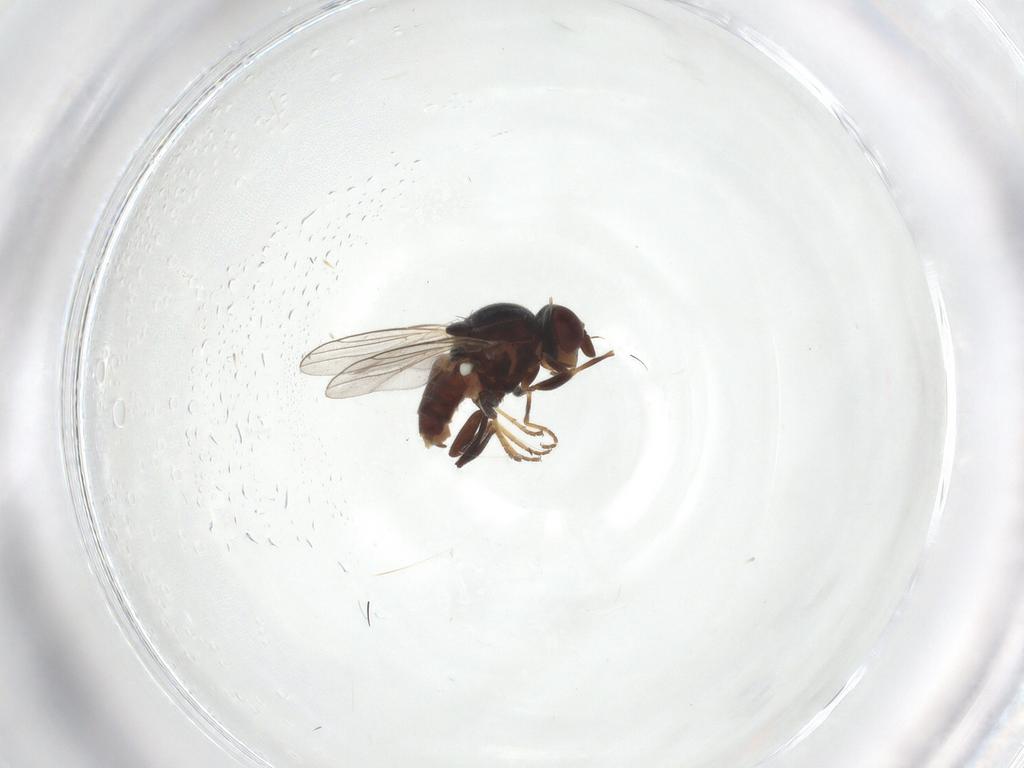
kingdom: Animalia
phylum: Arthropoda
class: Insecta
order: Diptera
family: Chloropidae
